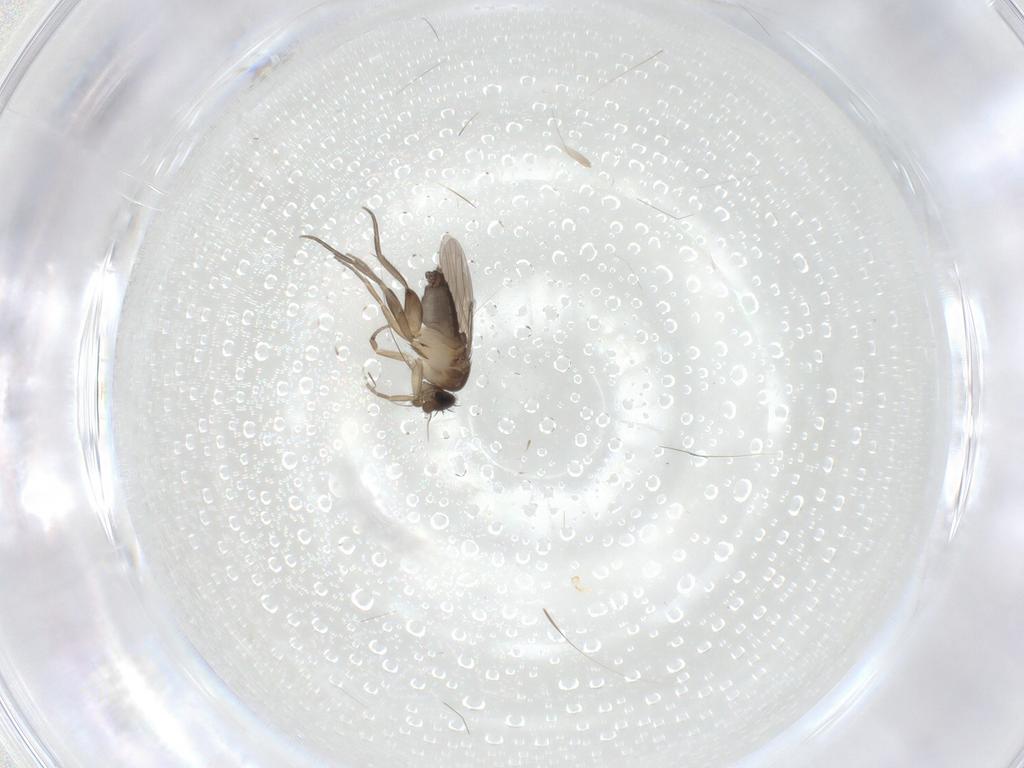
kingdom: Animalia
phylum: Arthropoda
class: Insecta
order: Diptera
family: Phoridae
